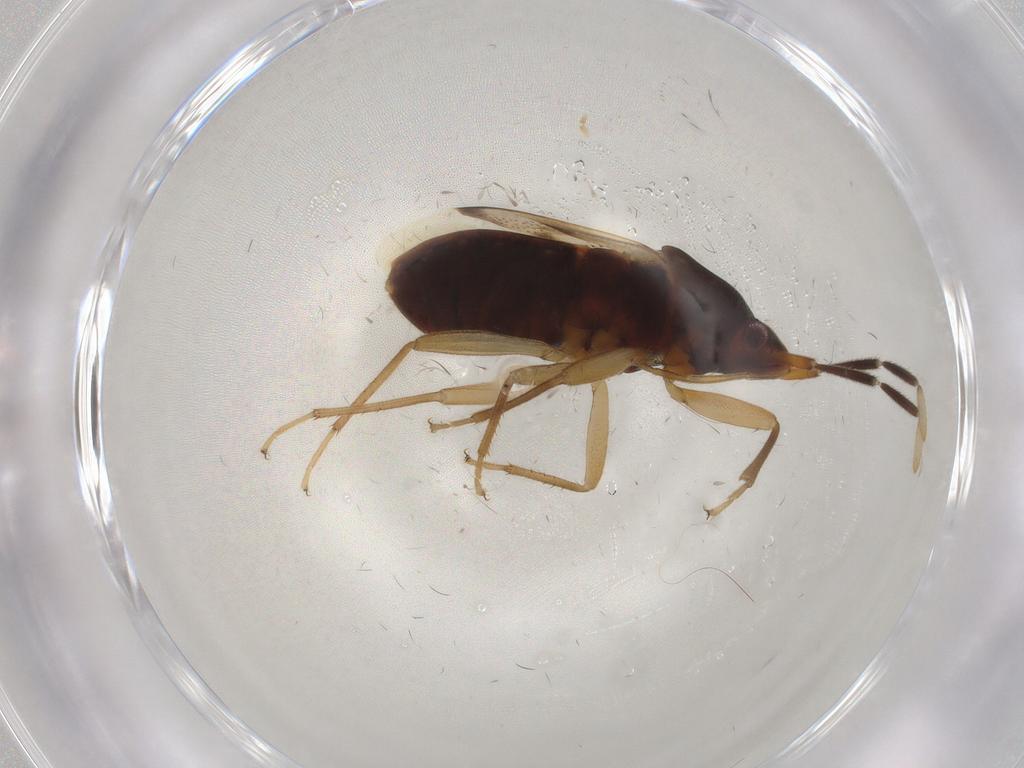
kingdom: Animalia
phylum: Arthropoda
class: Insecta
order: Hemiptera
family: Rhyparochromidae
